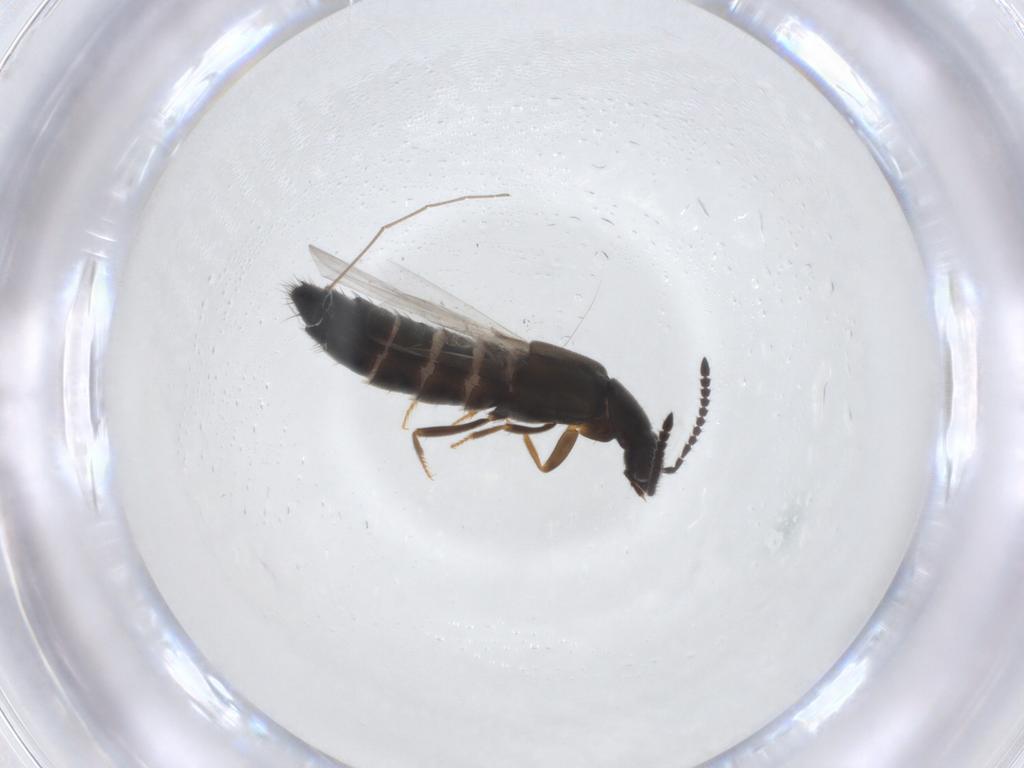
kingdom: Animalia
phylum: Arthropoda
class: Insecta
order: Coleoptera
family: Staphylinidae
